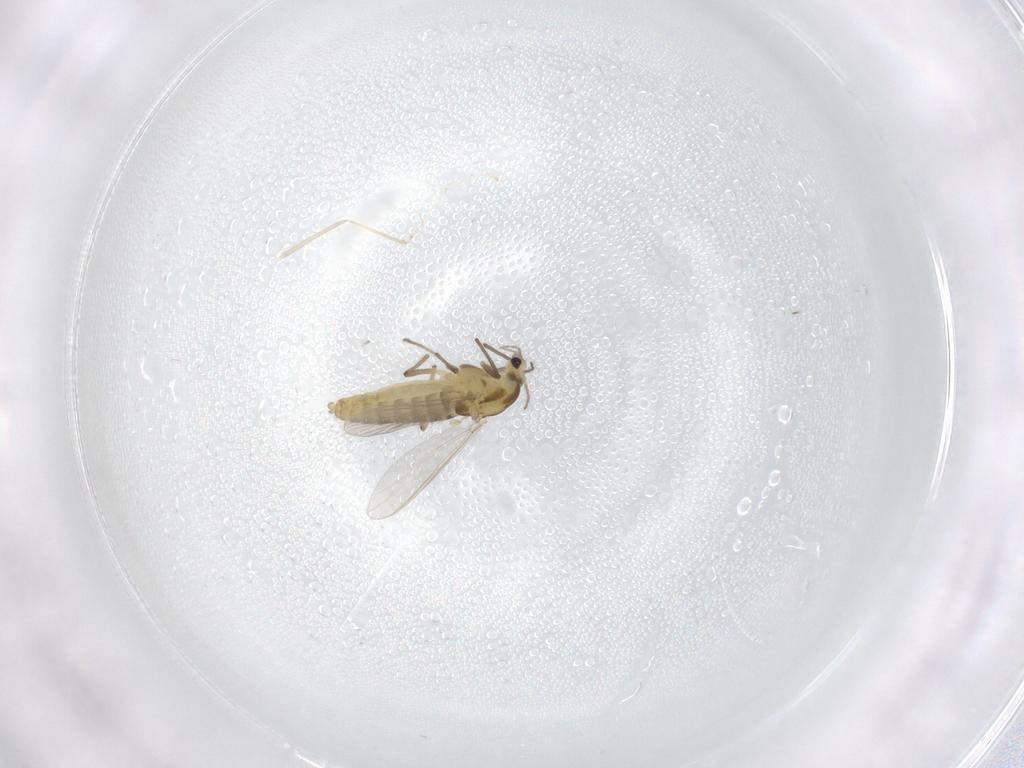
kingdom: Animalia
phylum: Arthropoda
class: Insecta
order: Diptera
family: Chironomidae
